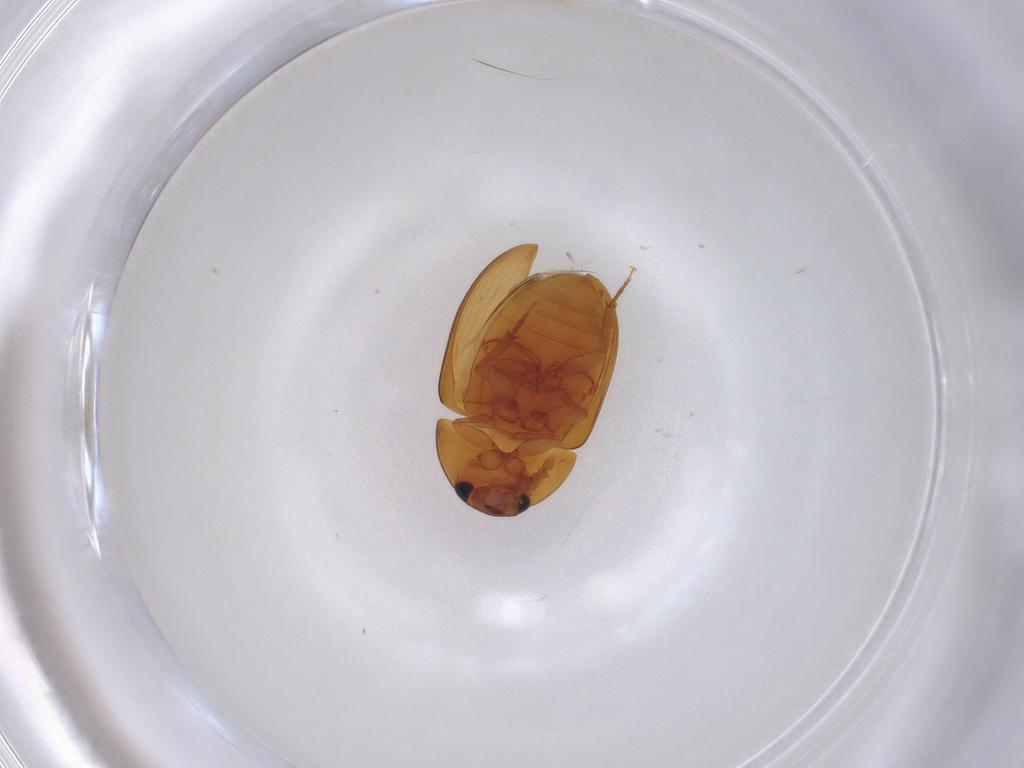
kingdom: Animalia
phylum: Arthropoda
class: Insecta
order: Coleoptera
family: Phalacridae
